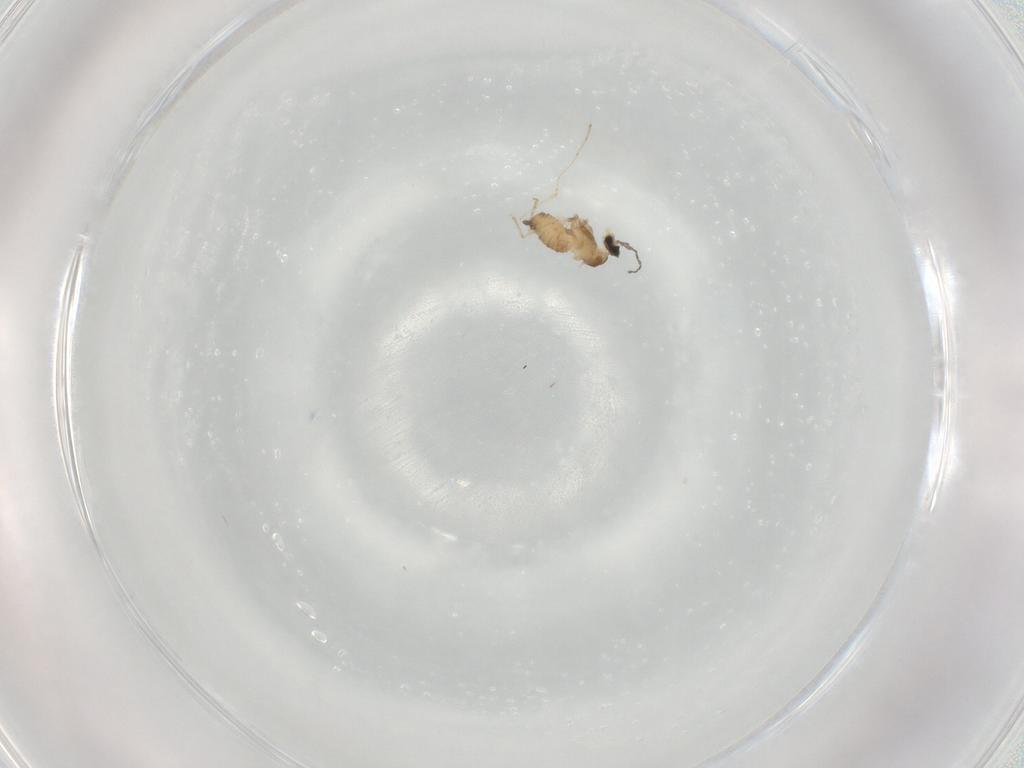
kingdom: Animalia
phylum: Arthropoda
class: Insecta
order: Diptera
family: Cecidomyiidae
